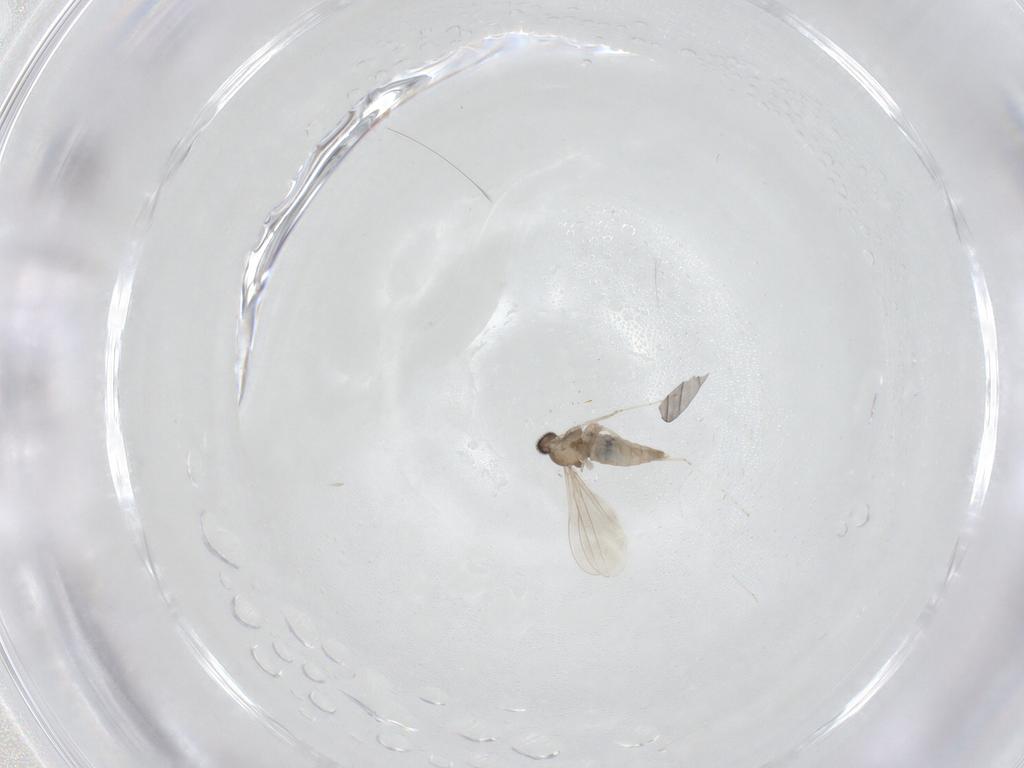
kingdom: Animalia
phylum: Arthropoda
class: Insecta
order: Diptera
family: Cecidomyiidae
